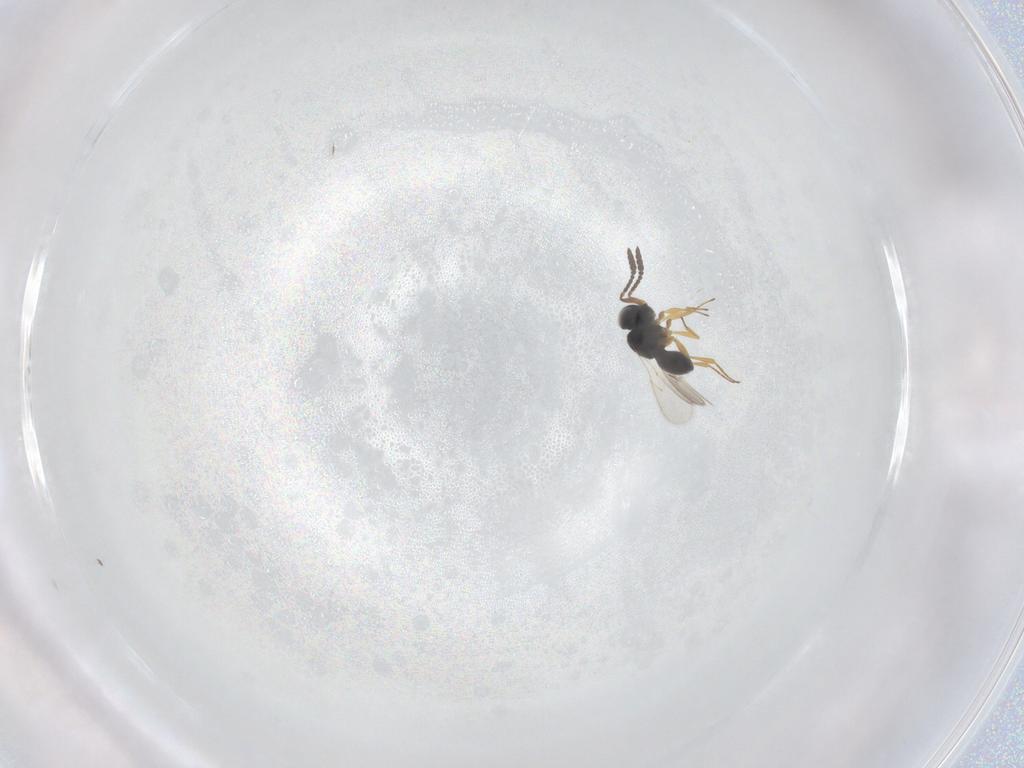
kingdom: Animalia
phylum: Arthropoda
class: Insecta
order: Hymenoptera
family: Scelionidae
